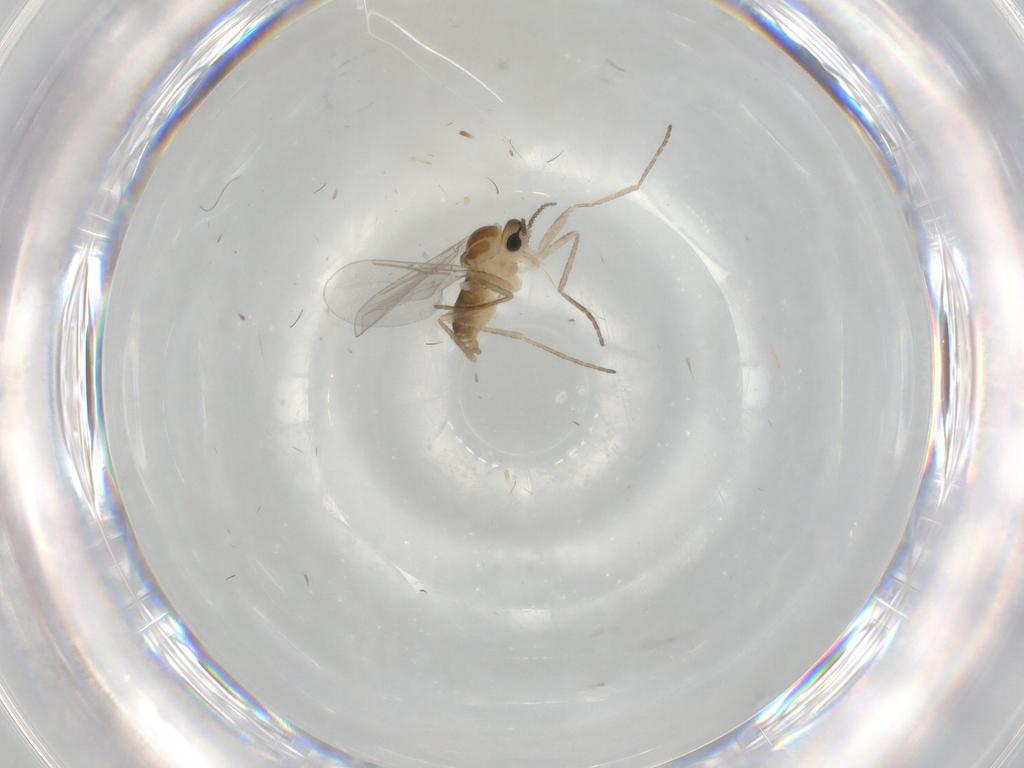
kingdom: Animalia
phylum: Arthropoda
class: Insecta
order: Diptera
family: Cecidomyiidae
